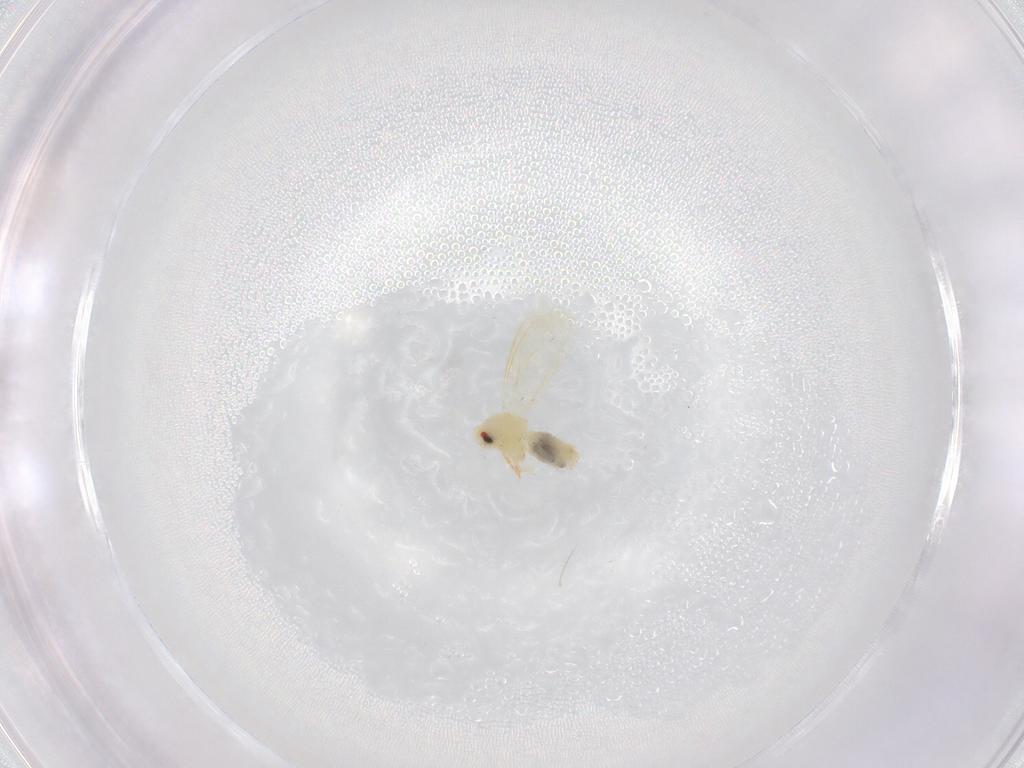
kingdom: Animalia
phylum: Arthropoda
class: Insecta
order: Hemiptera
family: Aleyrodidae
